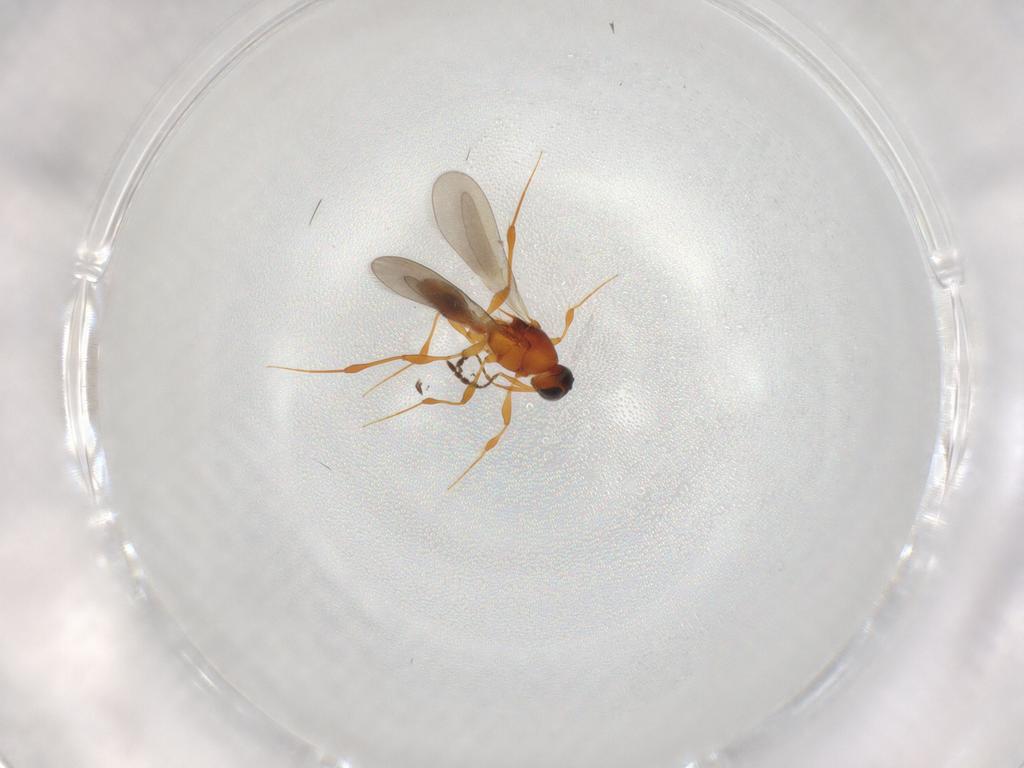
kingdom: Animalia
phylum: Arthropoda
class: Insecta
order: Hymenoptera
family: Platygastridae
